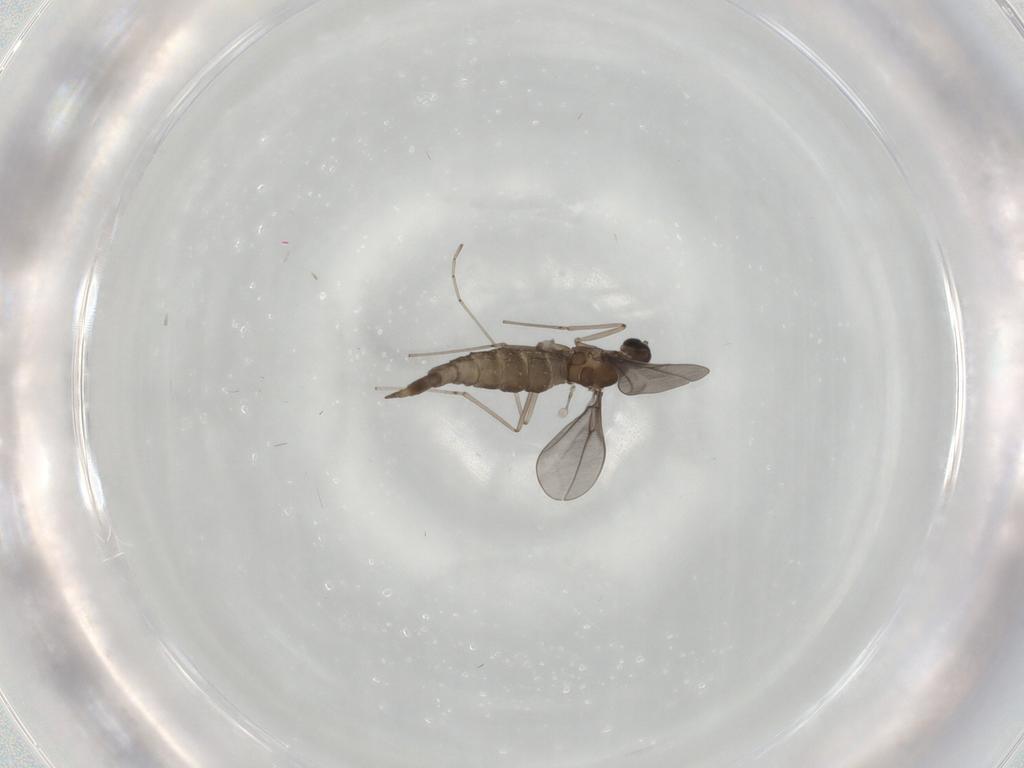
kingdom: Animalia
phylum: Arthropoda
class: Insecta
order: Diptera
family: Cecidomyiidae
